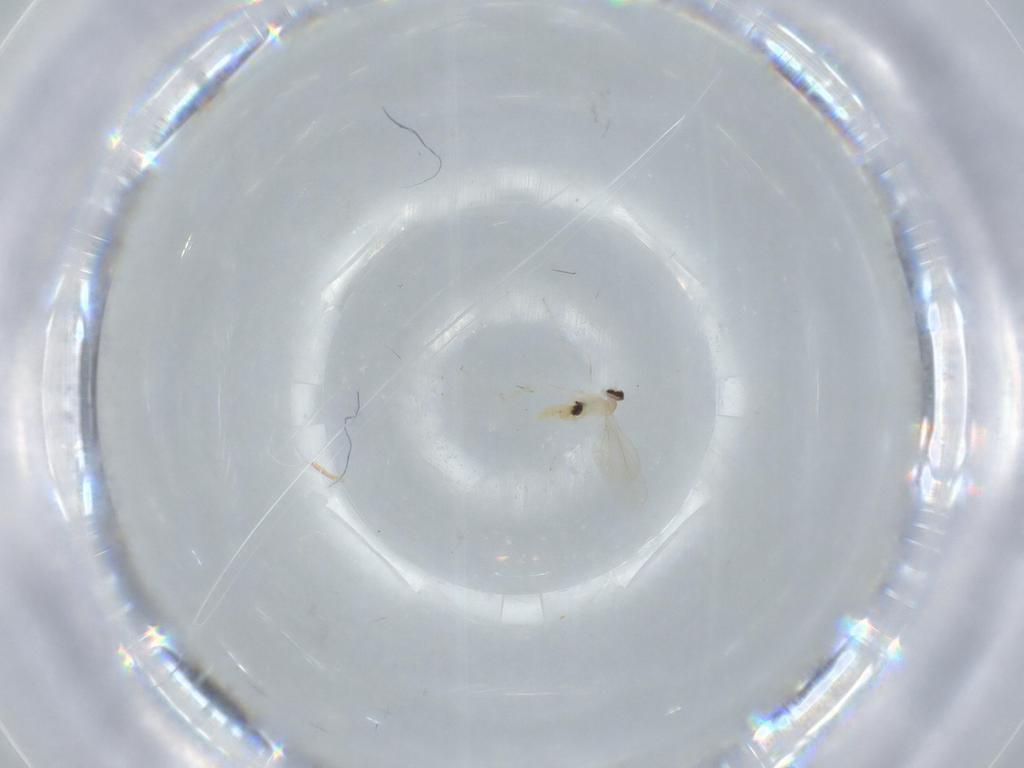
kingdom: Animalia
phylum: Arthropoda
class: Insecta
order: Diptera
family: Cecidomyiidae
